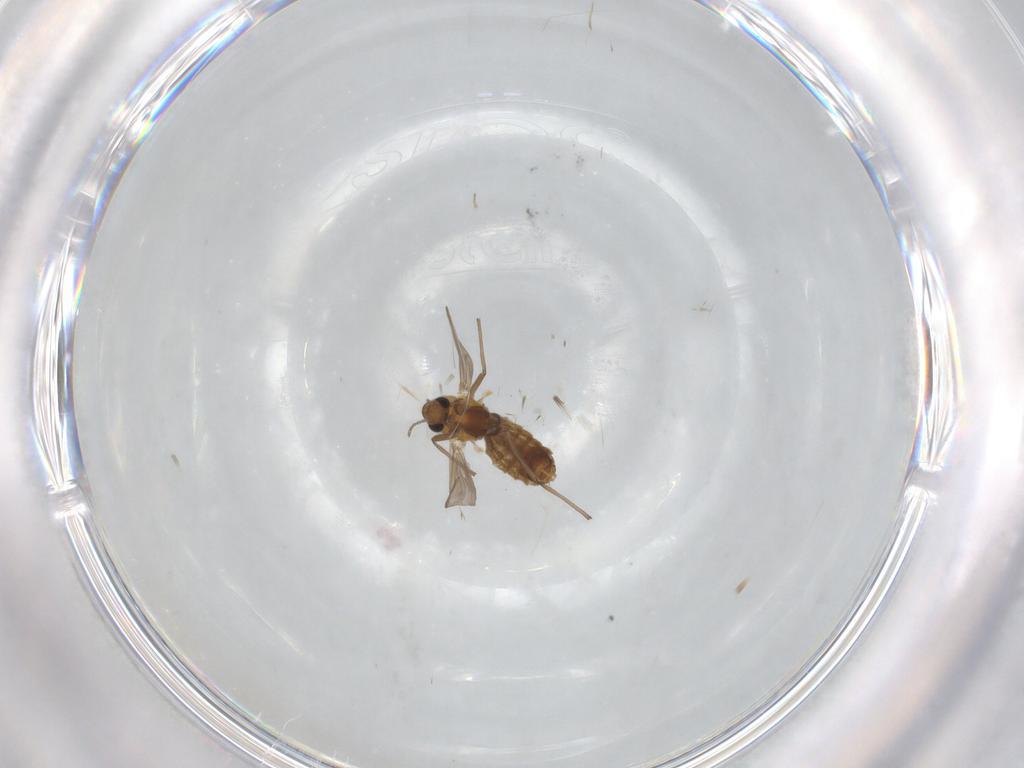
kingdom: Animalia
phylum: Arthropoda
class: Insecta
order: Diptera
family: Chironomidae
